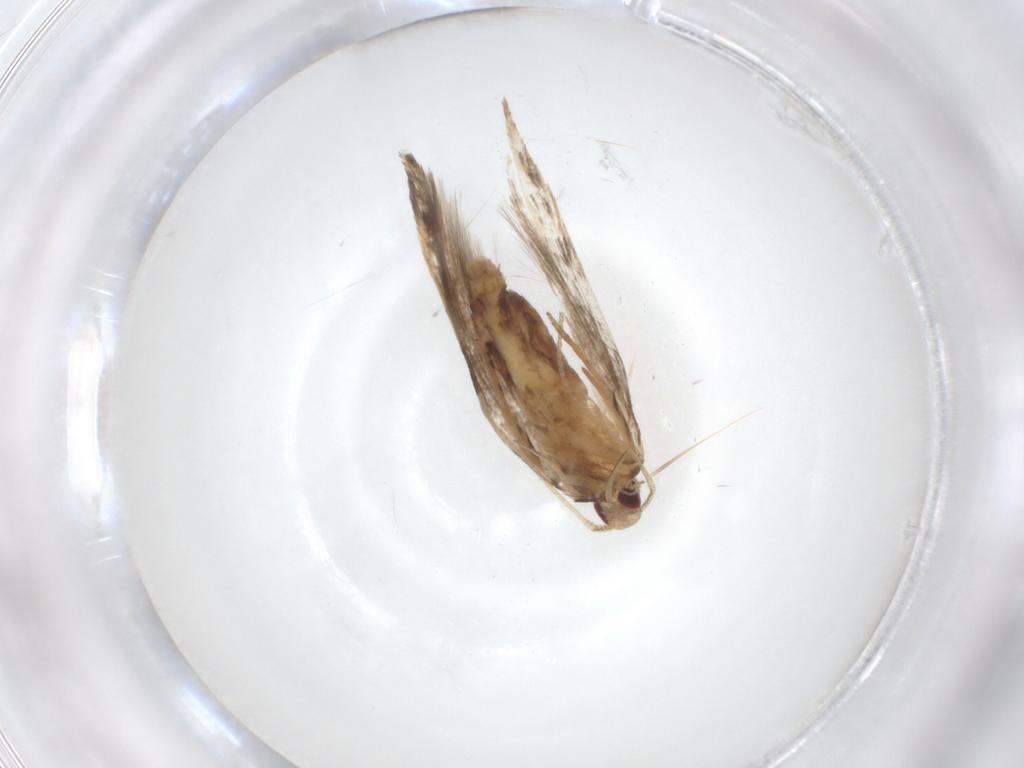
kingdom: Animalia
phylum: Arthropoda
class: Insecta
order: Lepidoptera
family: Cosmopterigidae
